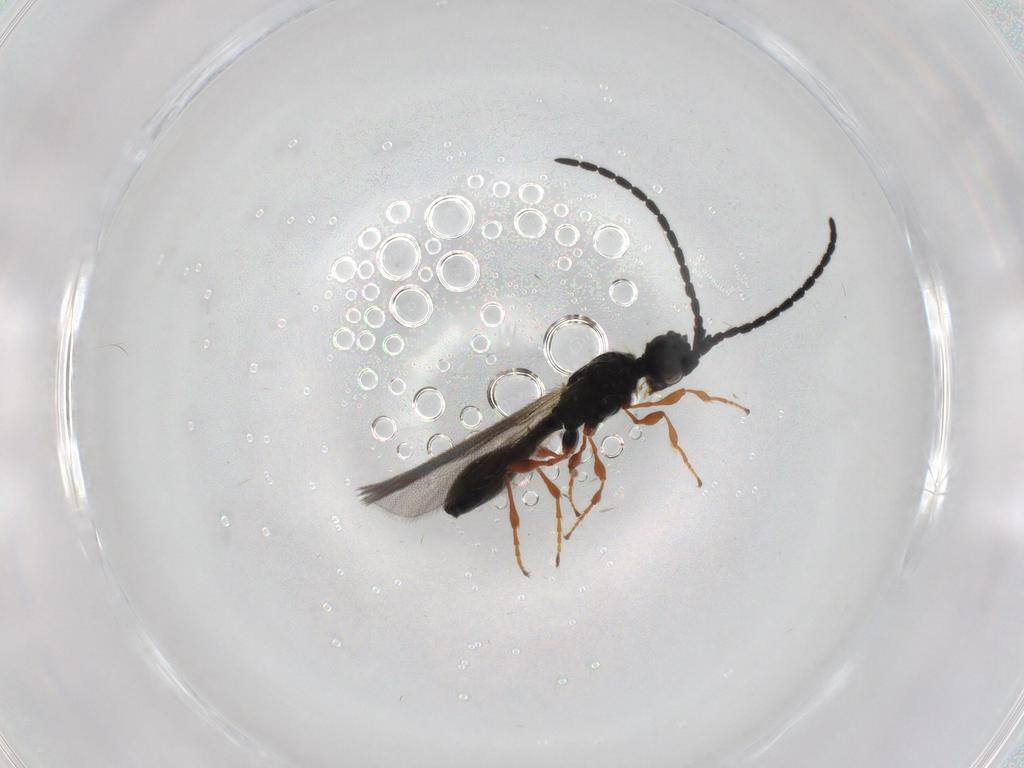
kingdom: Animalia
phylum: Arthropoda
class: Insecta
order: Hymenoptera
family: Diapriidae
